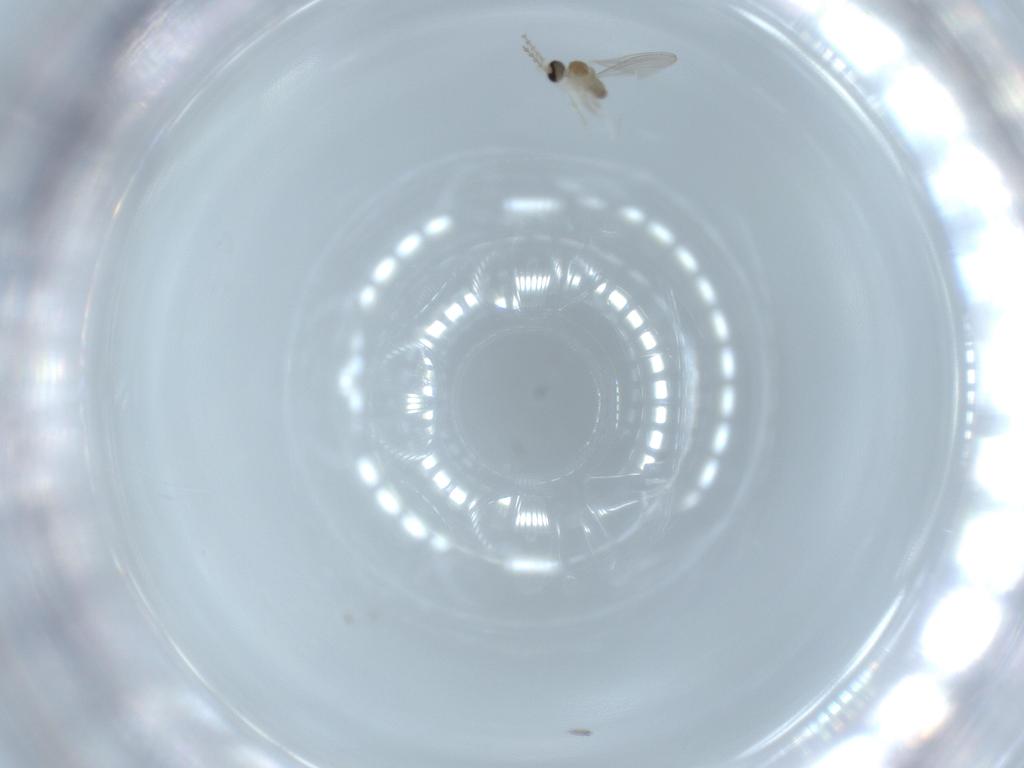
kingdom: Animalia
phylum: Arthropoda
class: Insecta
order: Diptera
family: Cecidomyiidae
